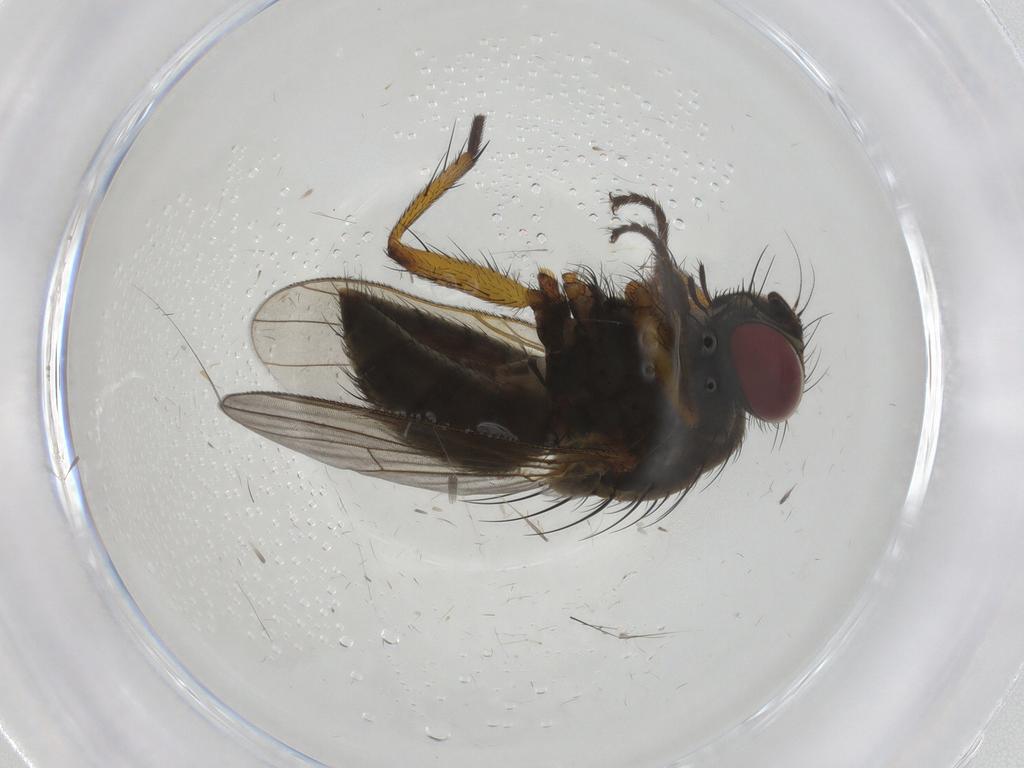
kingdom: Animalia
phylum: Arthropoda
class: Insecta
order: Diptera
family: Muscidae
